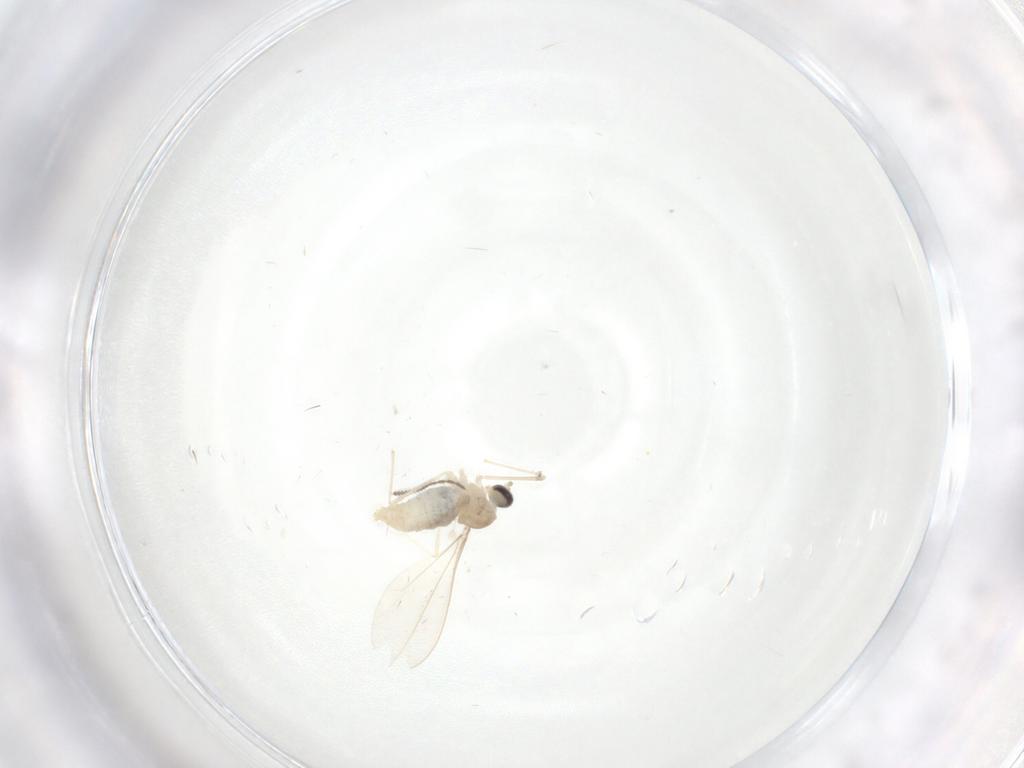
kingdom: Animalia
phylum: Arthropoda
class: Insecta
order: Diptera
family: Cecidomyiidae
